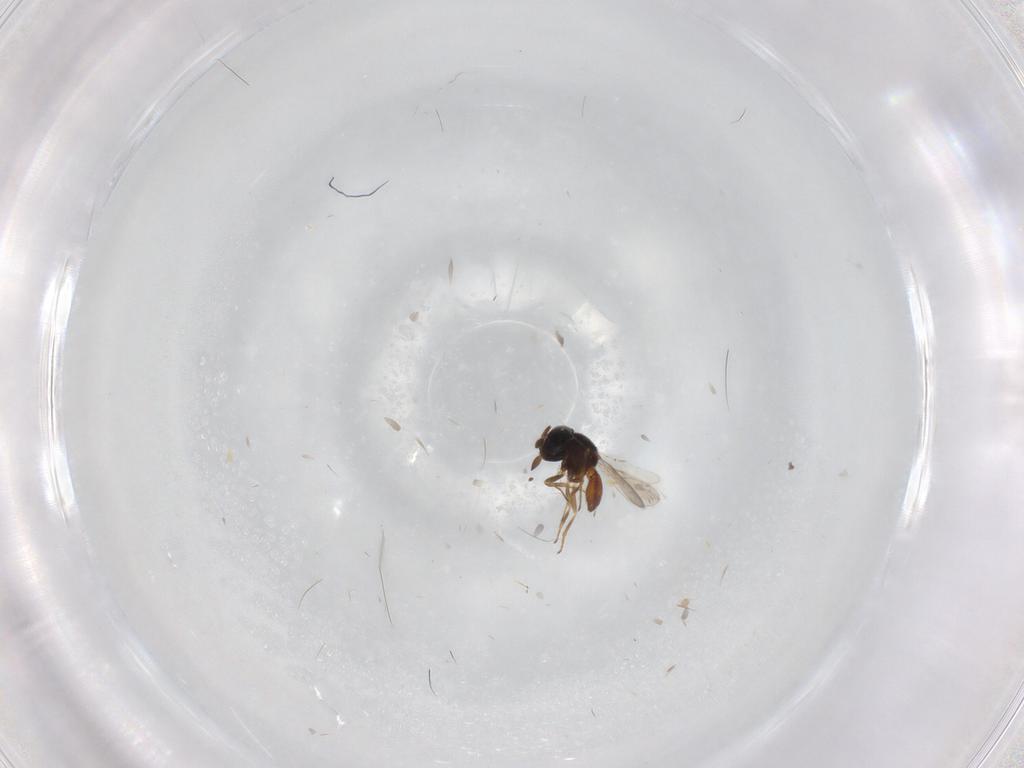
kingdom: Animalia
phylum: Arthropoda
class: Insecta
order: Hymenoptera
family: Scelionidae
